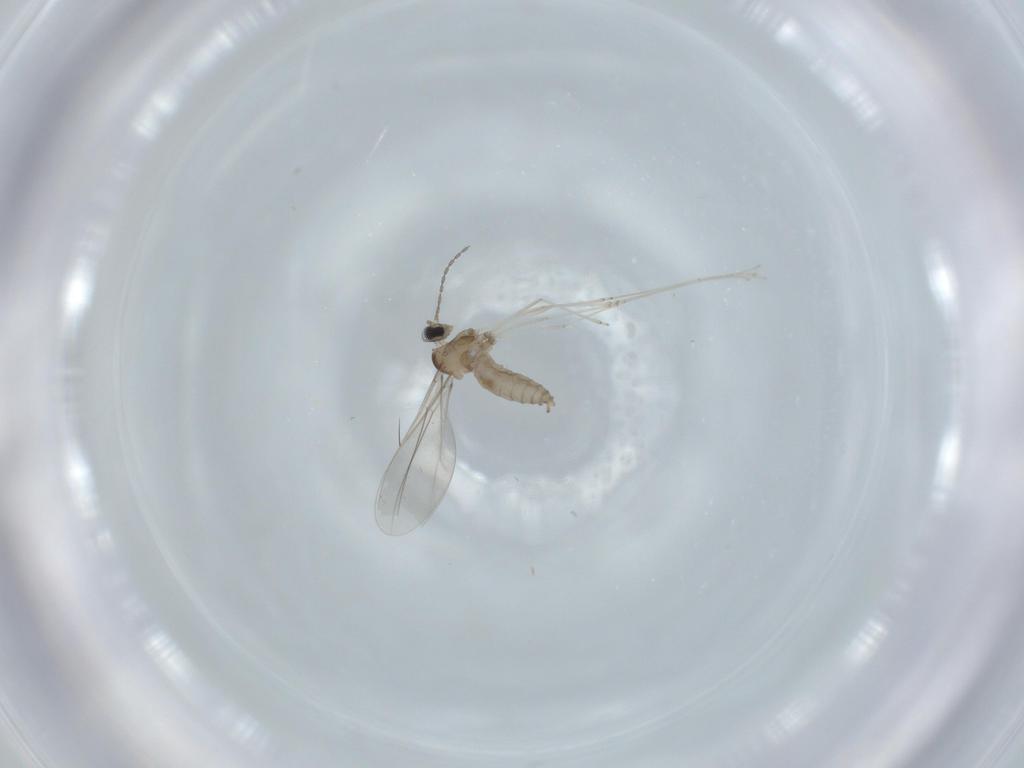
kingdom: Animalia
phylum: Arthropoda
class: Insecta
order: Diptera
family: Cecidomyiidae
